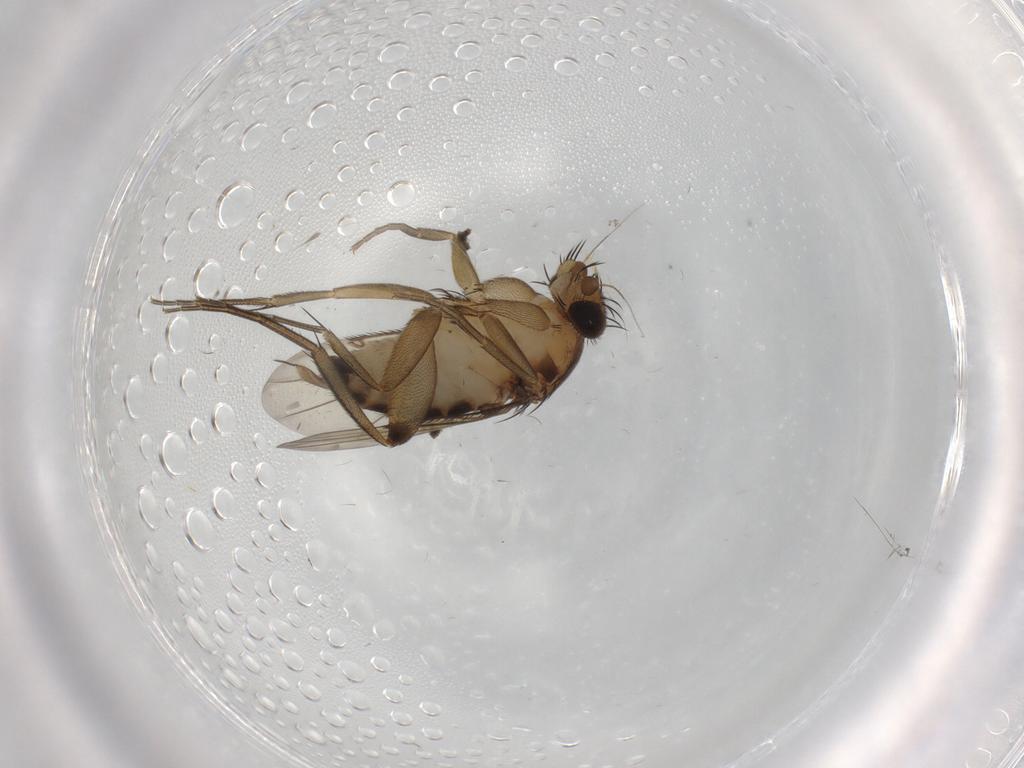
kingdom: Animalia
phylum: Arthropoda
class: Insecta
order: Diptera
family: Phoridae
